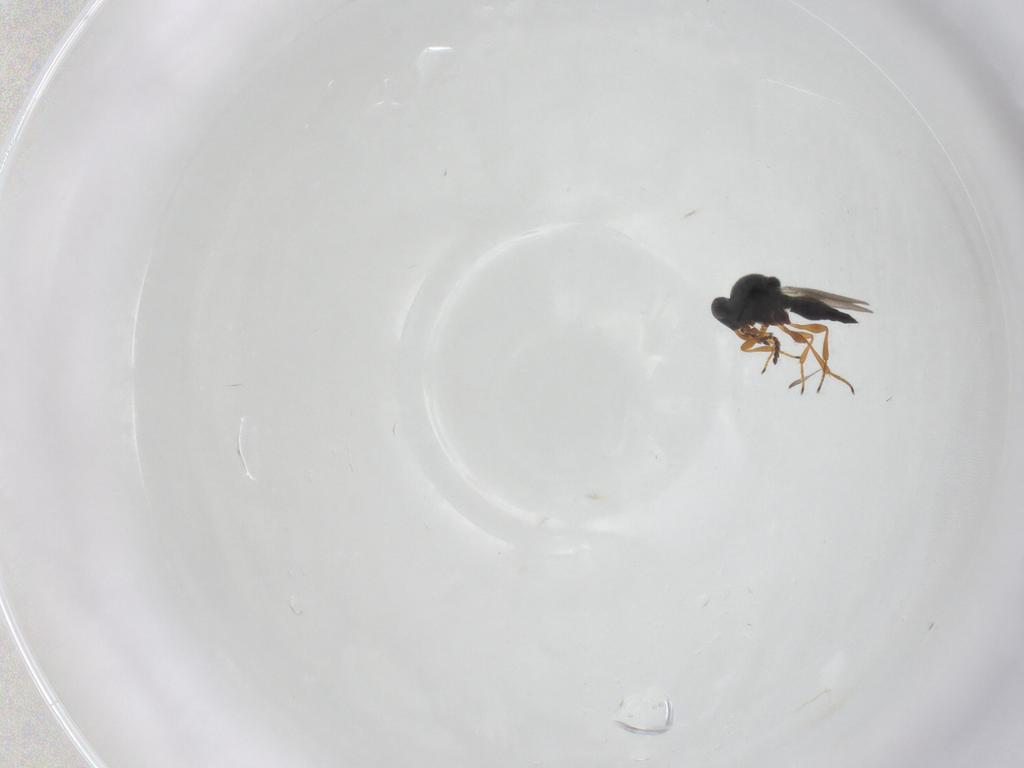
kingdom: Animalia
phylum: Arthropoda
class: Insecta
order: Hymenoptera
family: Platygastridae
